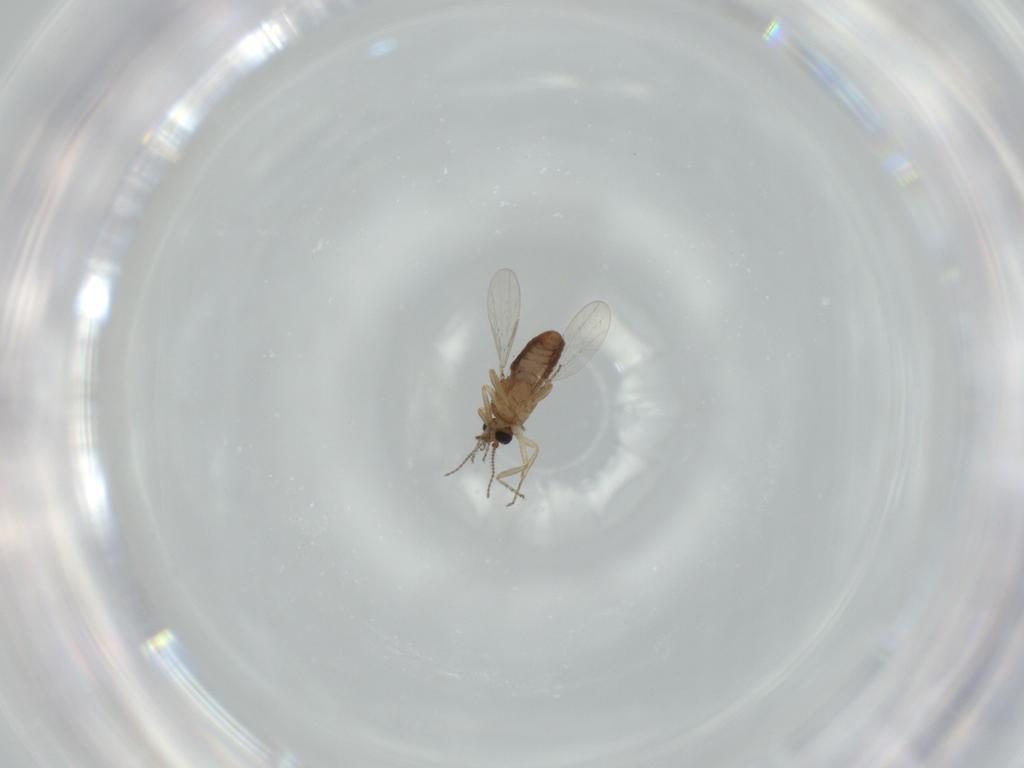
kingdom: Animalia
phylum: Arthropoda
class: Insecta
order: Diptera
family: Ceratopogonidae
